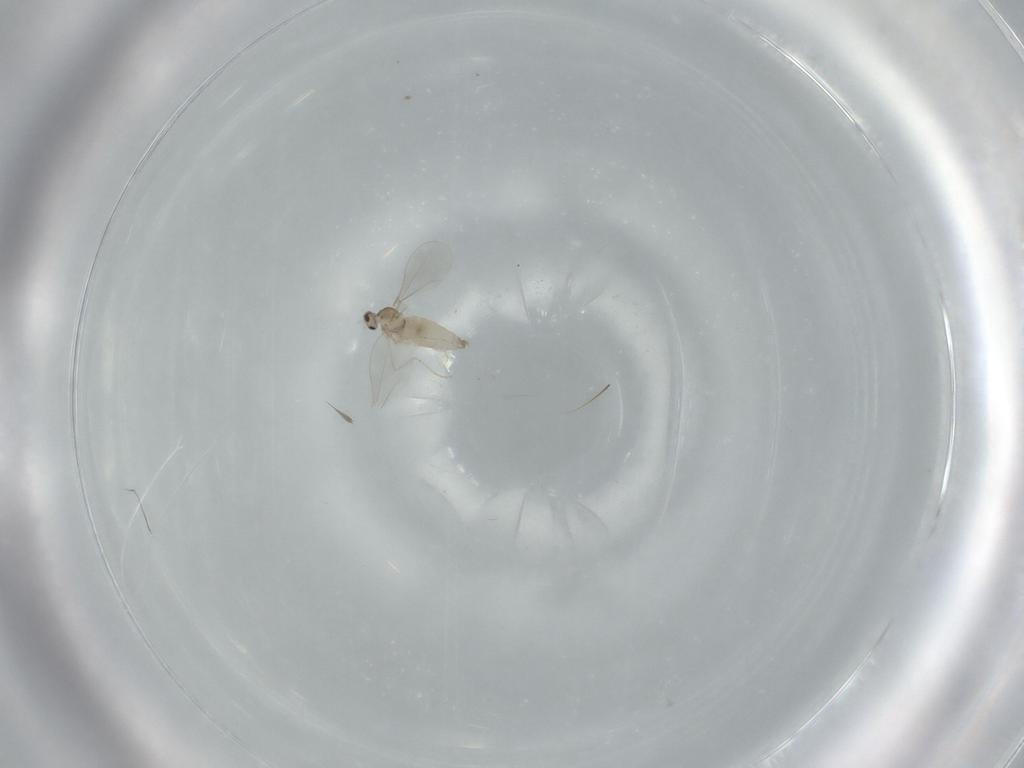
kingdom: Animalia
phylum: Arthropoda
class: Insecta
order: Diptera
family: Cecidomyiidae
